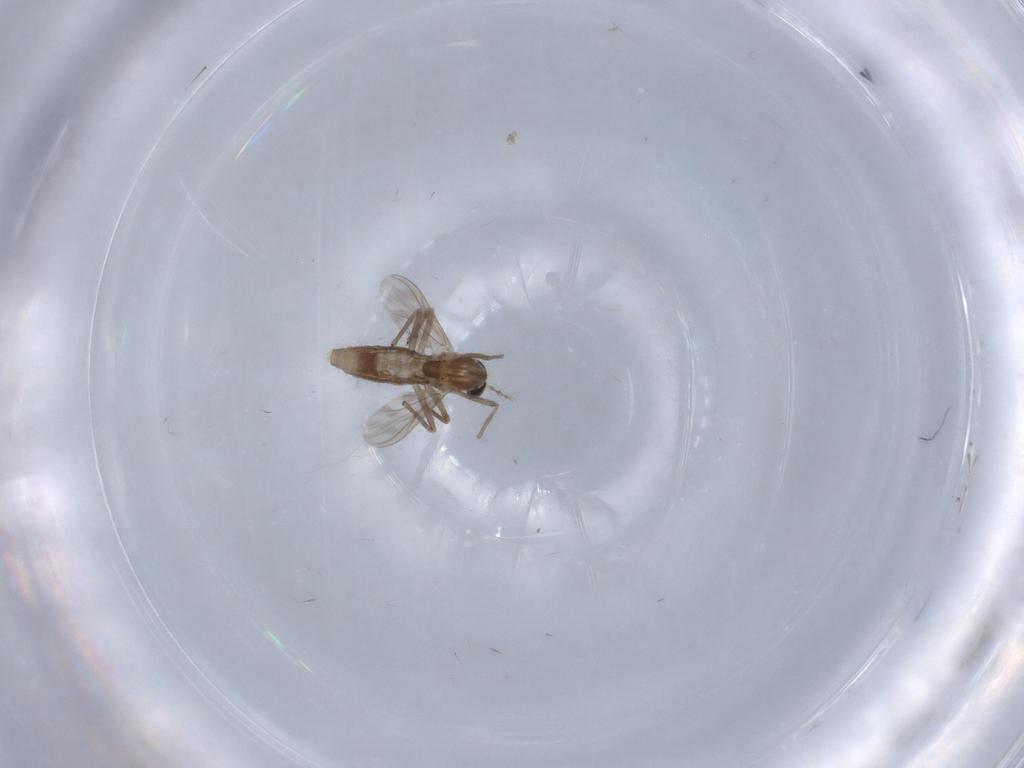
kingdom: Animalia
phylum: Arthropoda
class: Insecta
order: Diptera
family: Chironomidae
